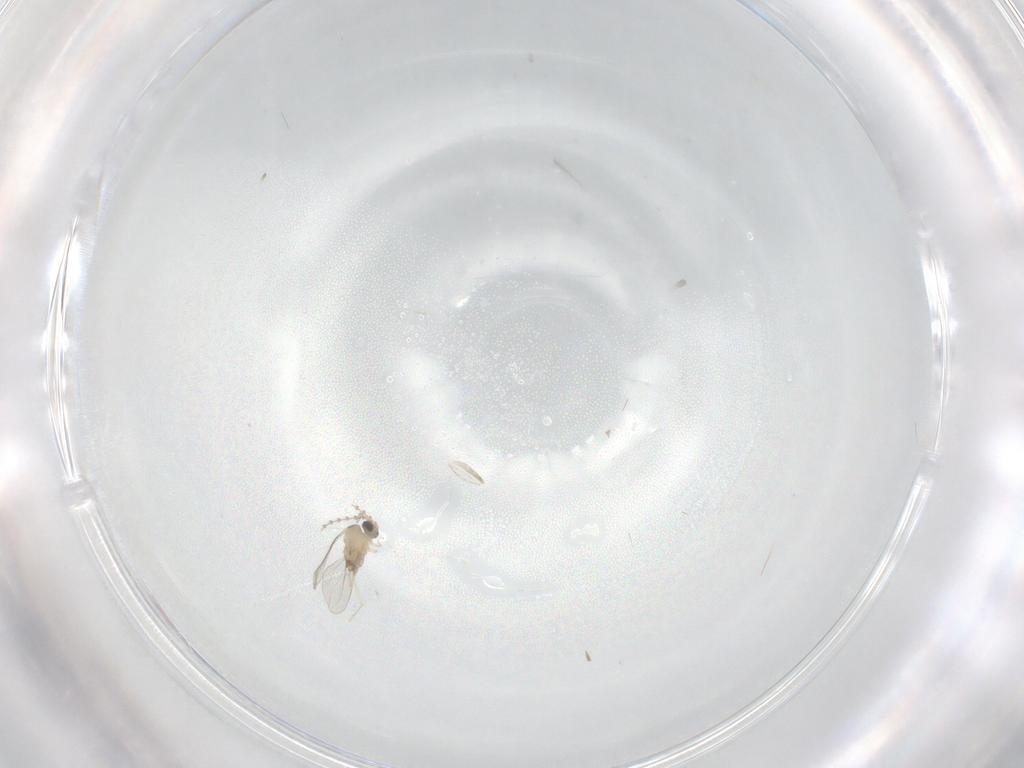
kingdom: Animalia
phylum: Arthropoda
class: Insecta
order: Diptera
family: Cecidomyiidae
